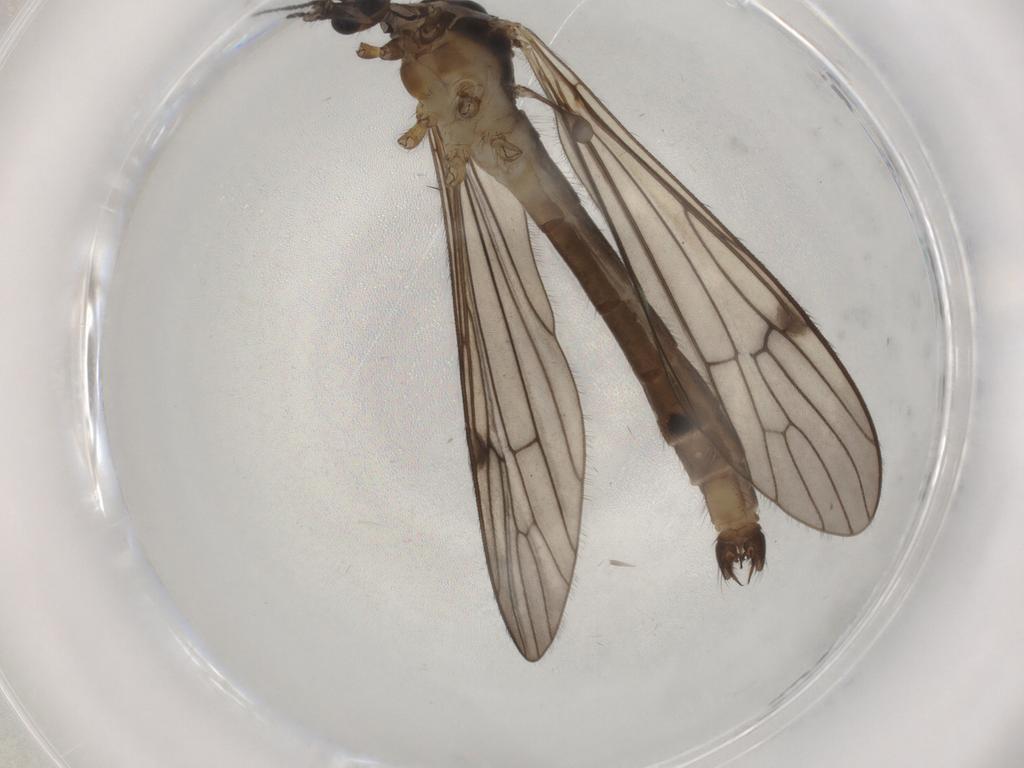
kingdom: Animalia
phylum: Arthropoda
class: Insecta
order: Diptera
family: Limoniidae
